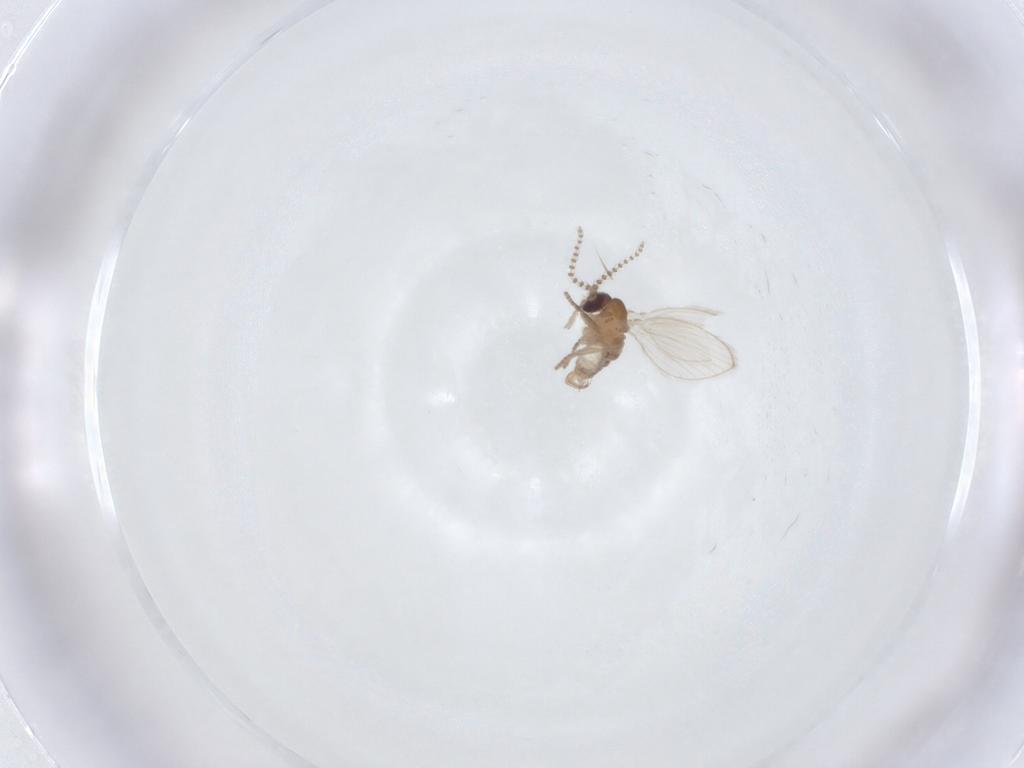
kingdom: Animalia
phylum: Arthropoda
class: Insecta
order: Diptera
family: Psychodidae
